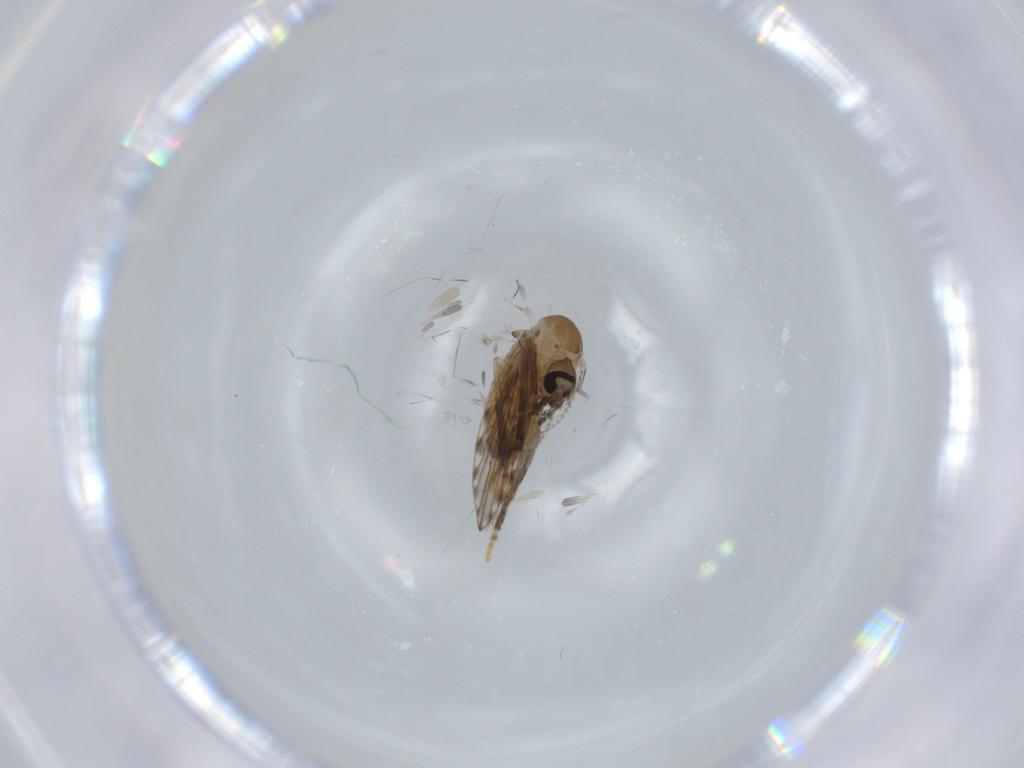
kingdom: Animalia
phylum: Arthropoda
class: Insecta
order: Diptera
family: Psychodidae
